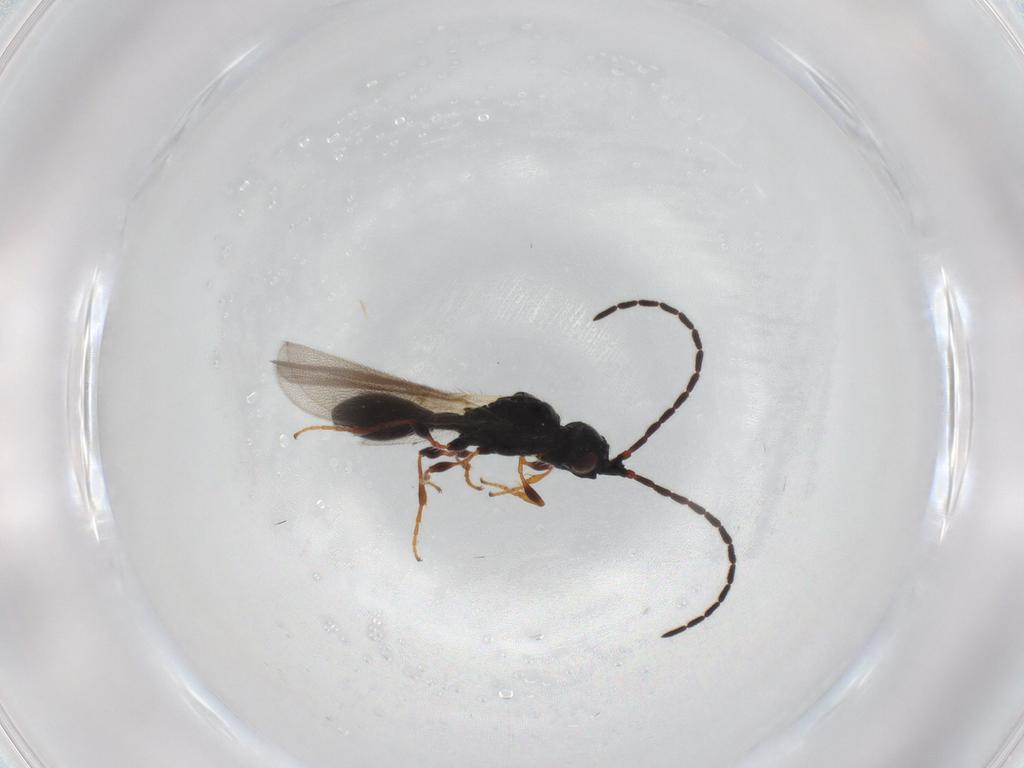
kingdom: Animalia
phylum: Arthropoda
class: Insecta
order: Hymenoptera
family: Diapriidae
